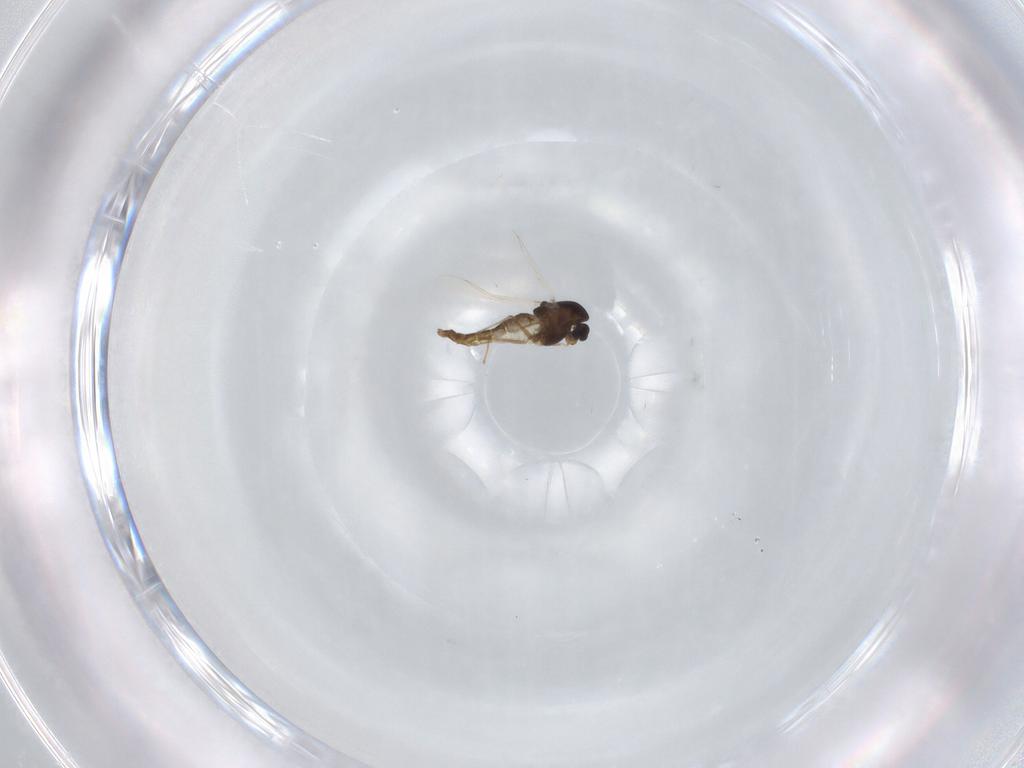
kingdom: Animalia
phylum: Arthropoda
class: Insecta
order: Diptera
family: Chironomidae
